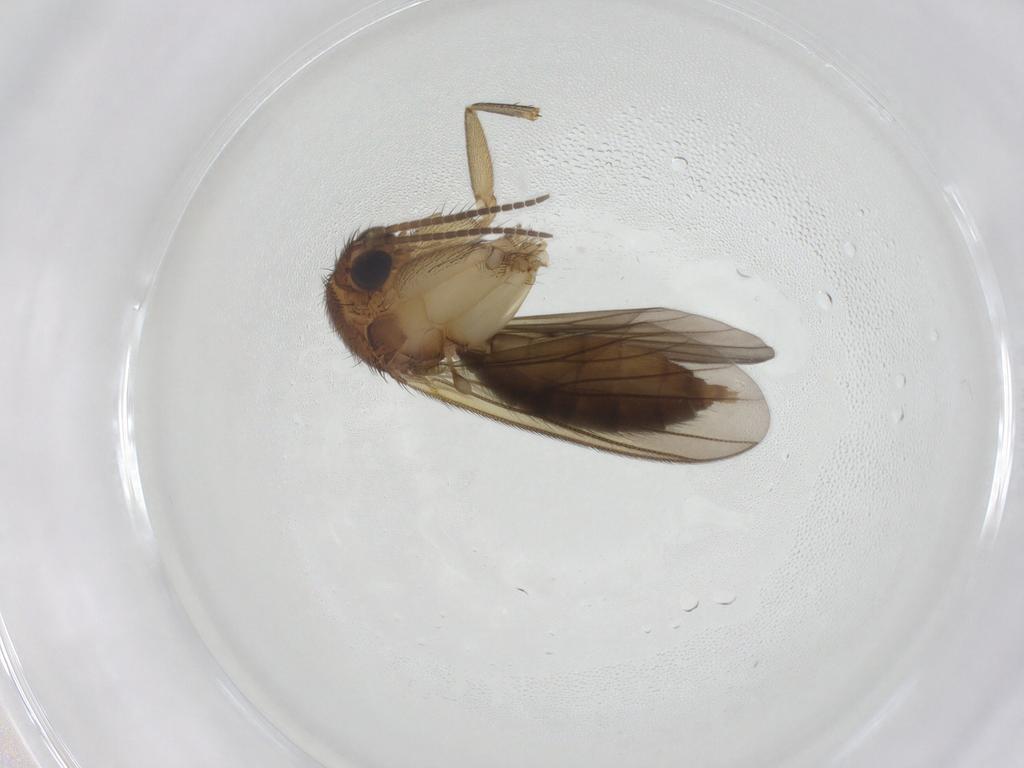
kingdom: Animalia
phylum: Arthropoda
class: Insecta
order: Diptera
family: Mycetophilidae
